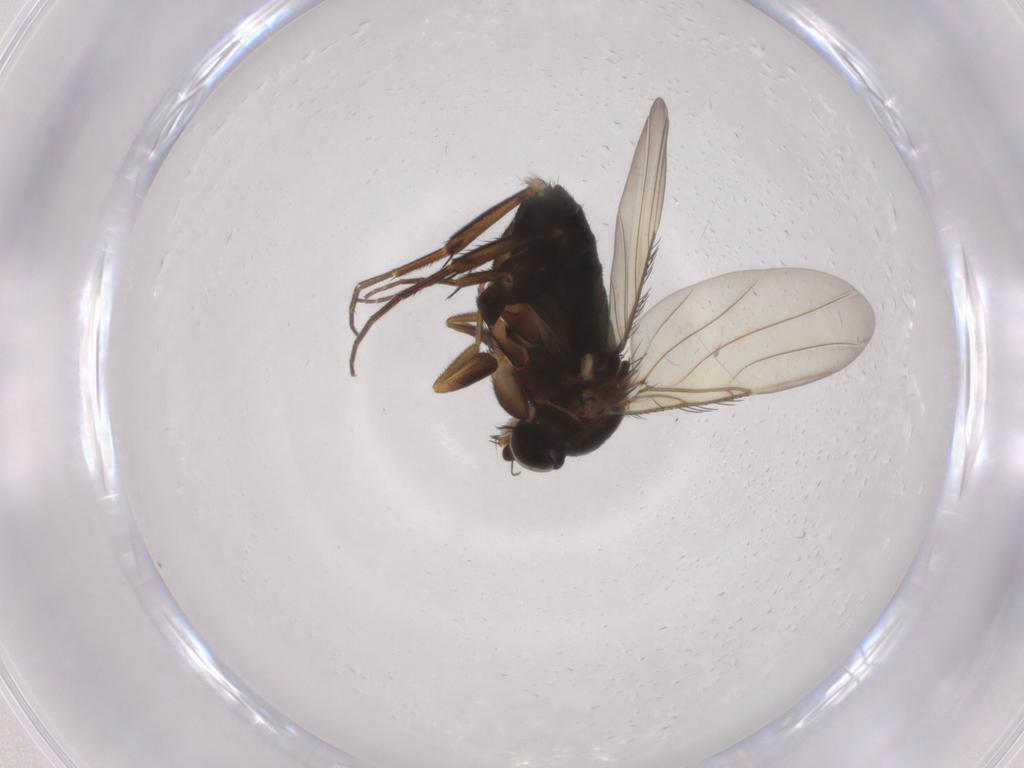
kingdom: Animalia
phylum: Arthropoda
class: Insecta
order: Diptera
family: Phoridae
